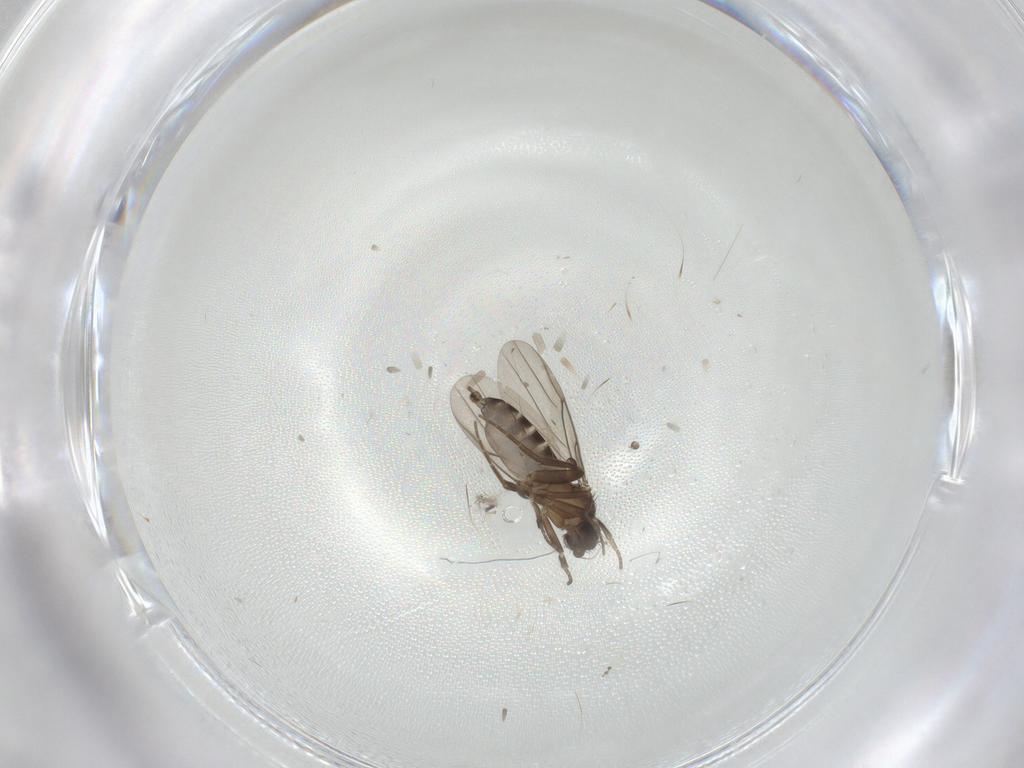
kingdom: Animalia
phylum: Arthropoda
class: Insecta
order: Diptera
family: Phoridae
